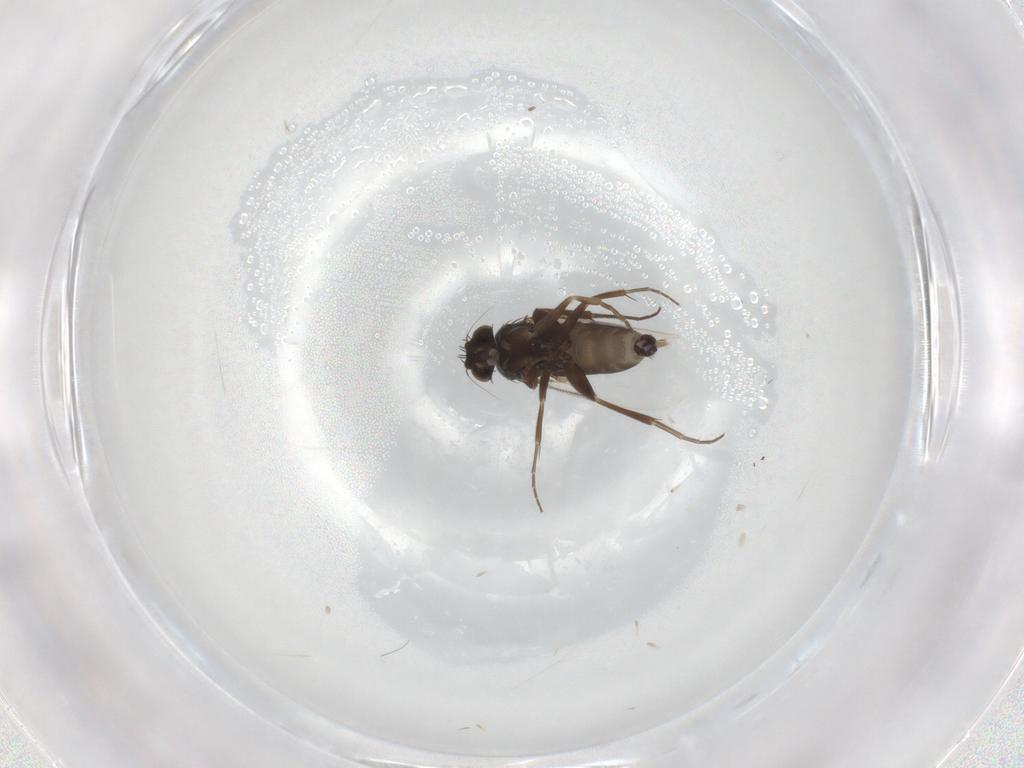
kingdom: Animalia
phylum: Arthropoda
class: Insecta
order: Diptera
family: Phoridae
